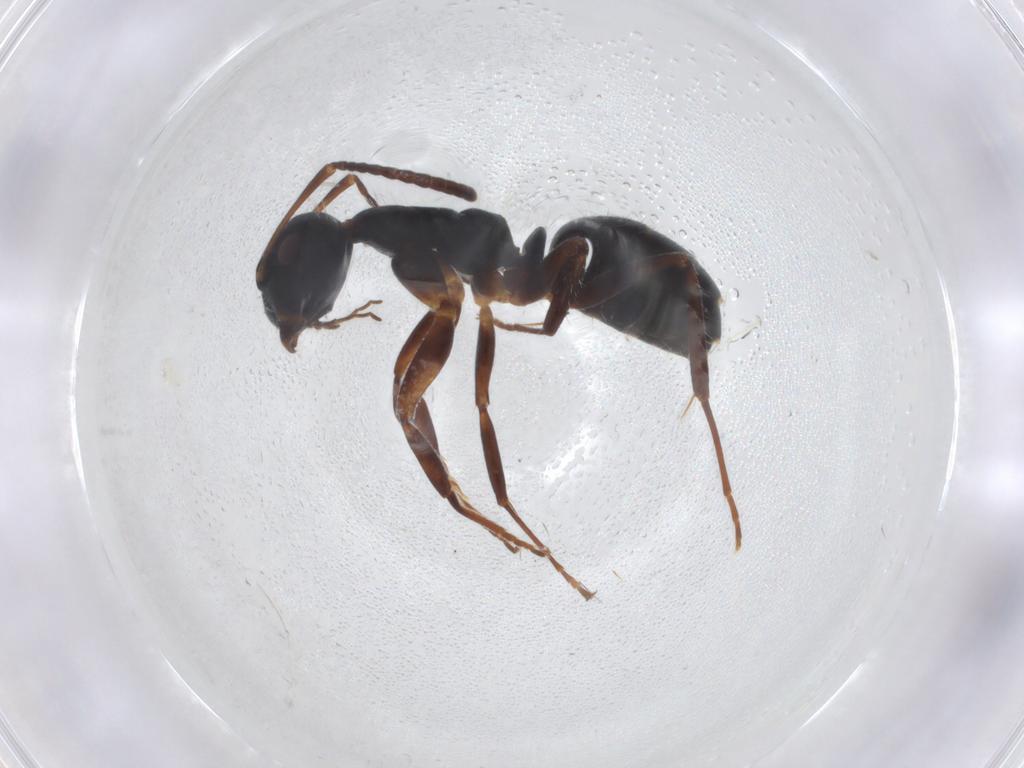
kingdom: Animalia
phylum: Arthropoda
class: Insecta
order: Hymenoptera
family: Formicidae
